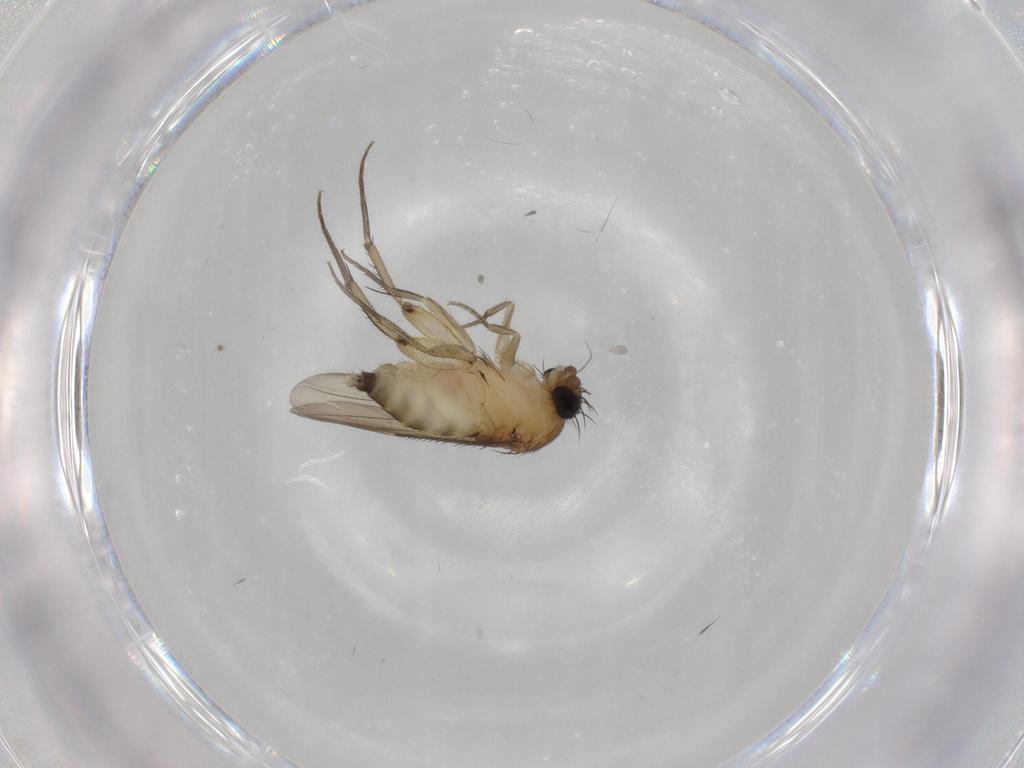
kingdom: Animalia
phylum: Arthropoda
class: Insecta
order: Diptera
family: Phoridae
